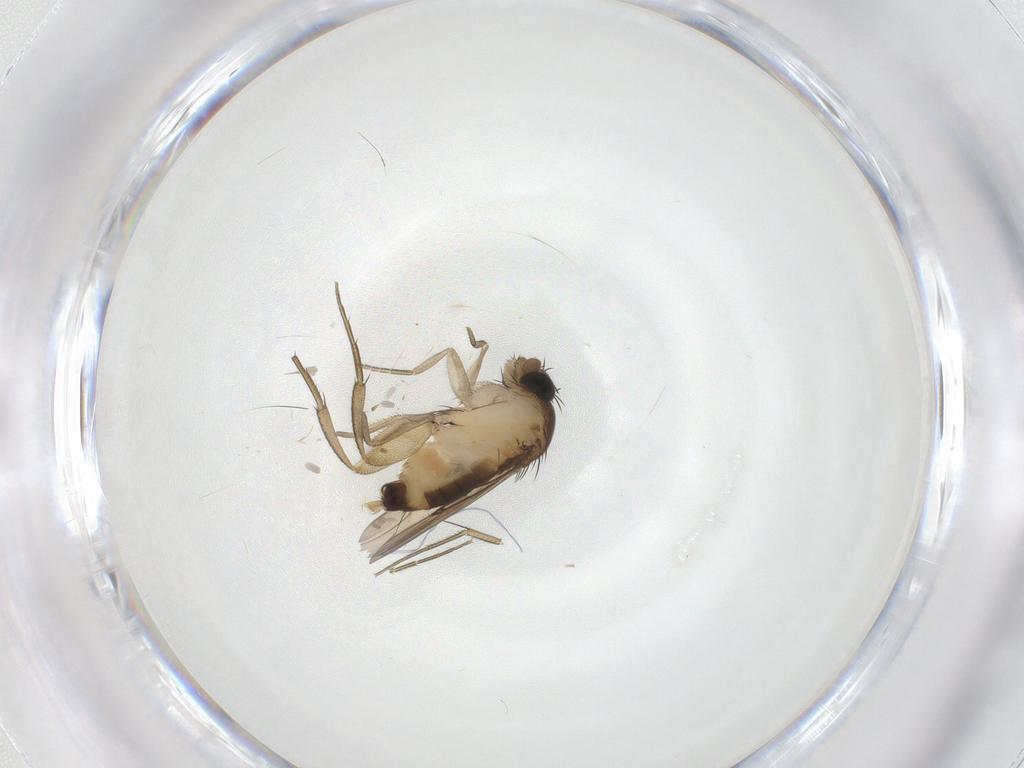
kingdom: Animalia
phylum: Arthropoda
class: Insecta
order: Diptera
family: Cecidomyiidae
